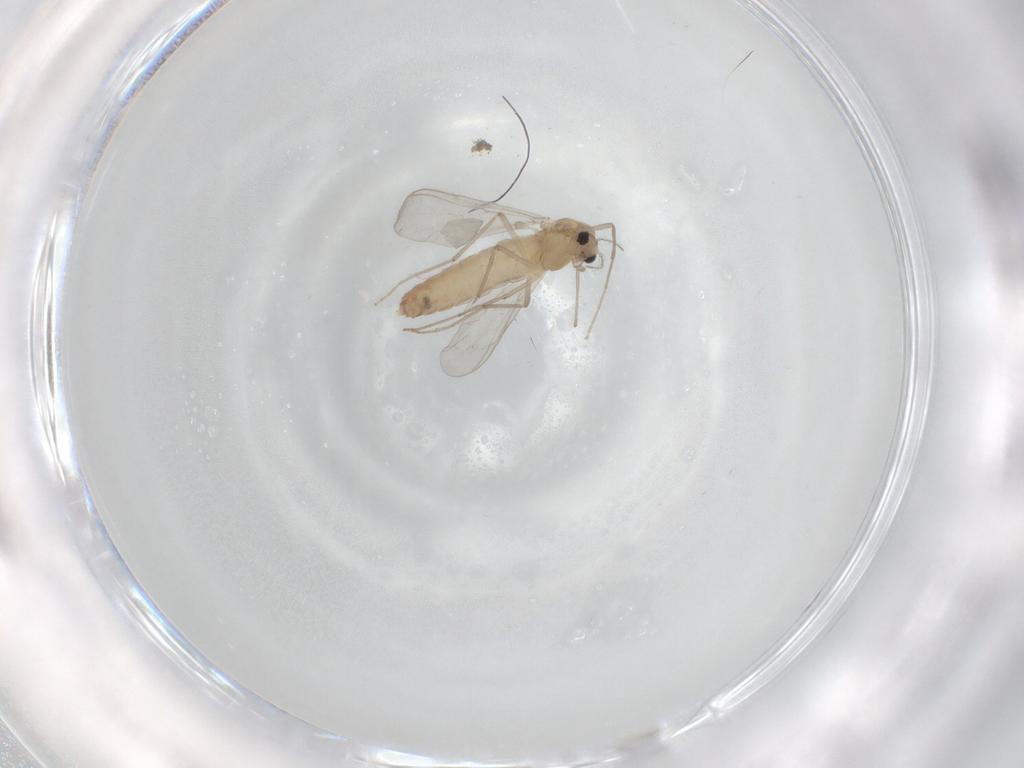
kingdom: Animalia
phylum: Arthropoda
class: Insecta
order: Diptera
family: Chironomidae
